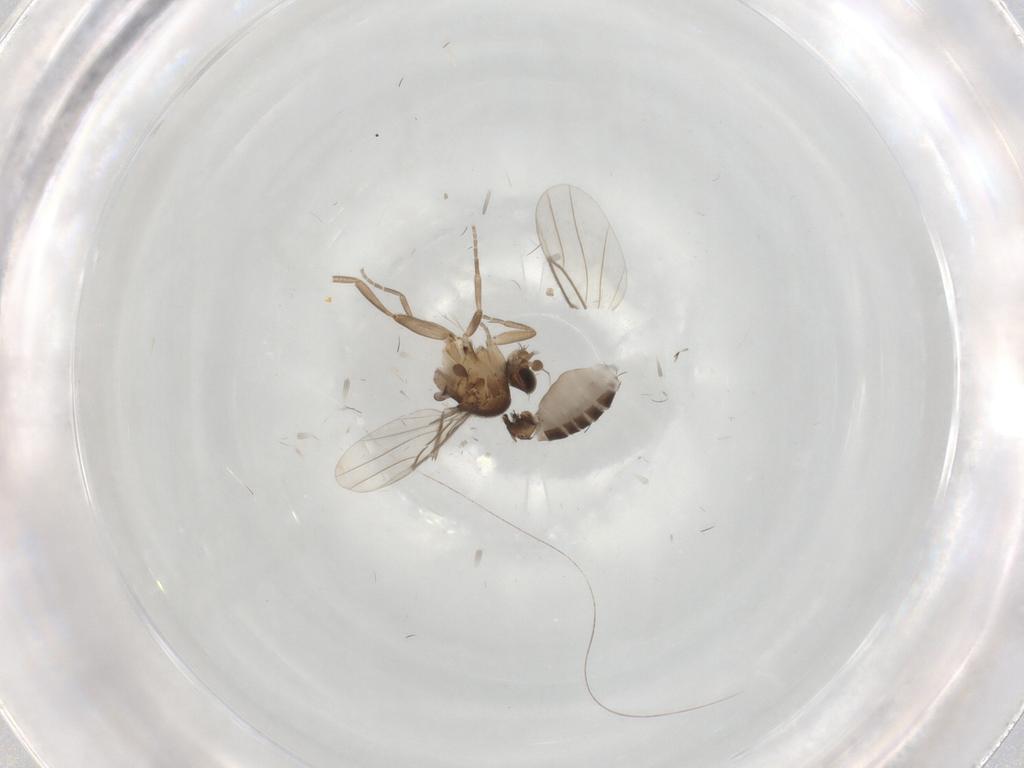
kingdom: Animalia
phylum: Arthropoda
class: Insecta
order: Diptera
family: Phoridae
